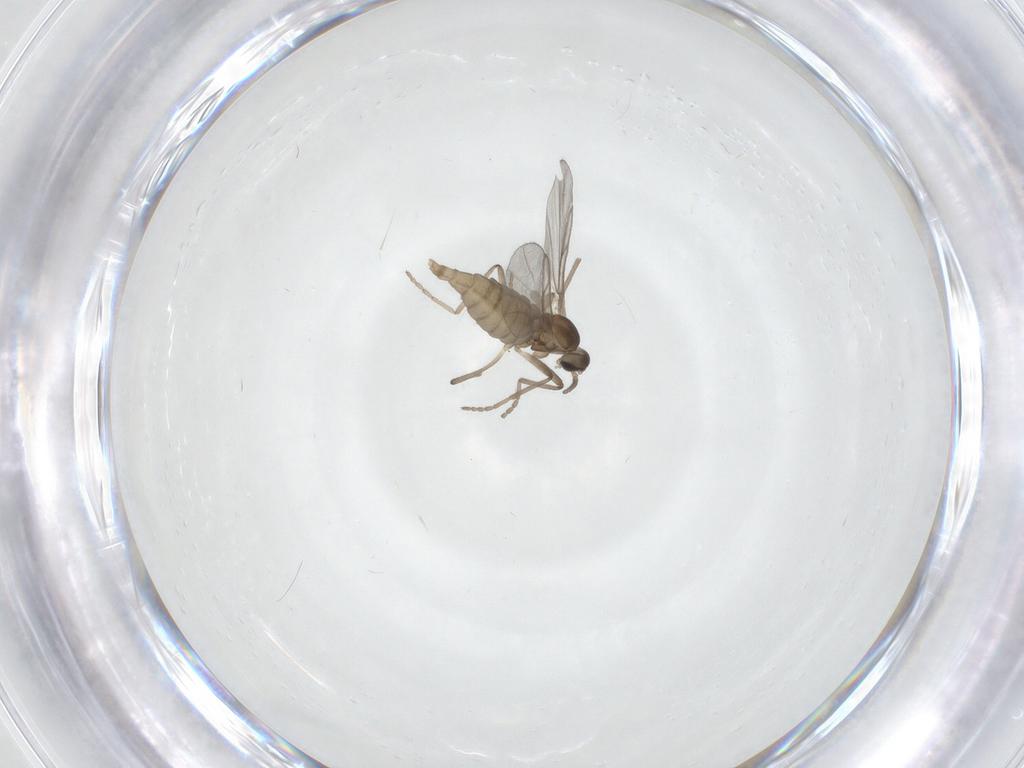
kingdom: Animalia
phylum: Arthropoda
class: Insecta
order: Diptera
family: Cecidomyiidae
